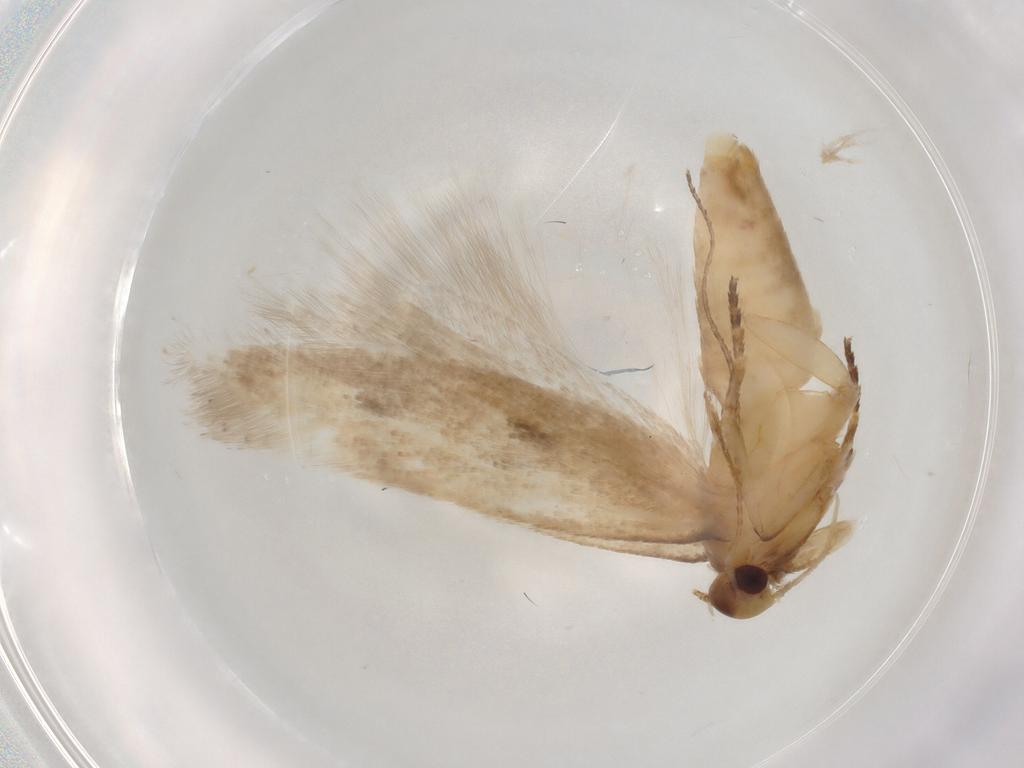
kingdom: Animalia
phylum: Arthropoda
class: Insecta
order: Lepidoptera
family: Gelechiidae
